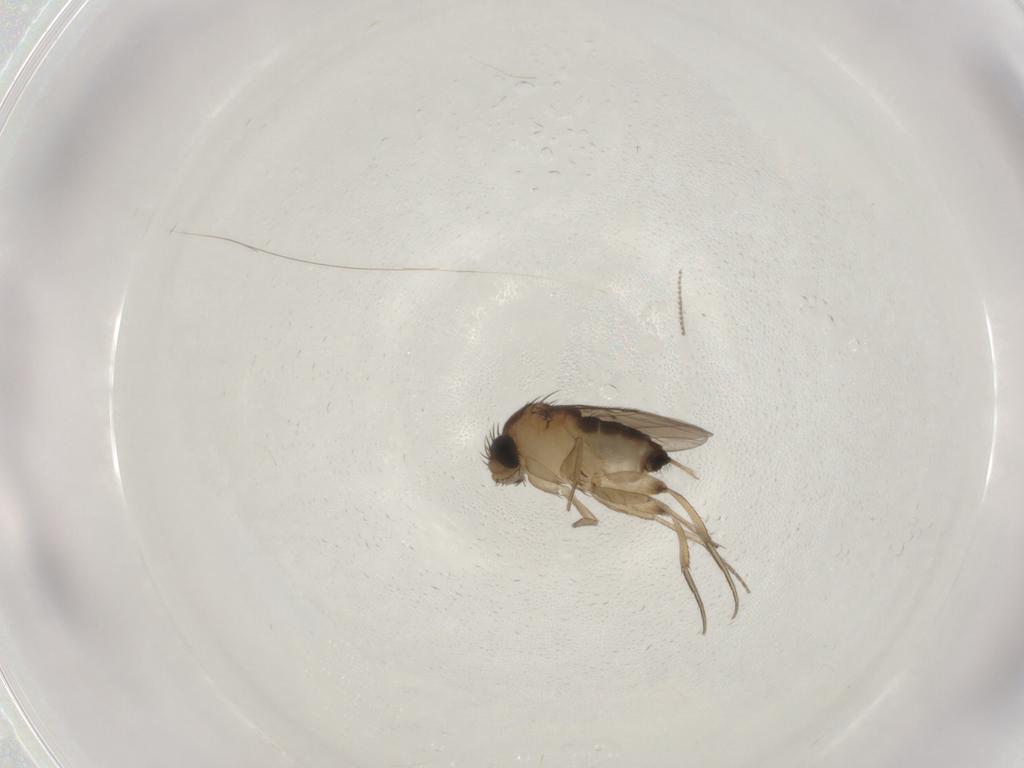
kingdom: Animalia
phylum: Arthropoda
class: Insecta
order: Diptera
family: Phoridae
